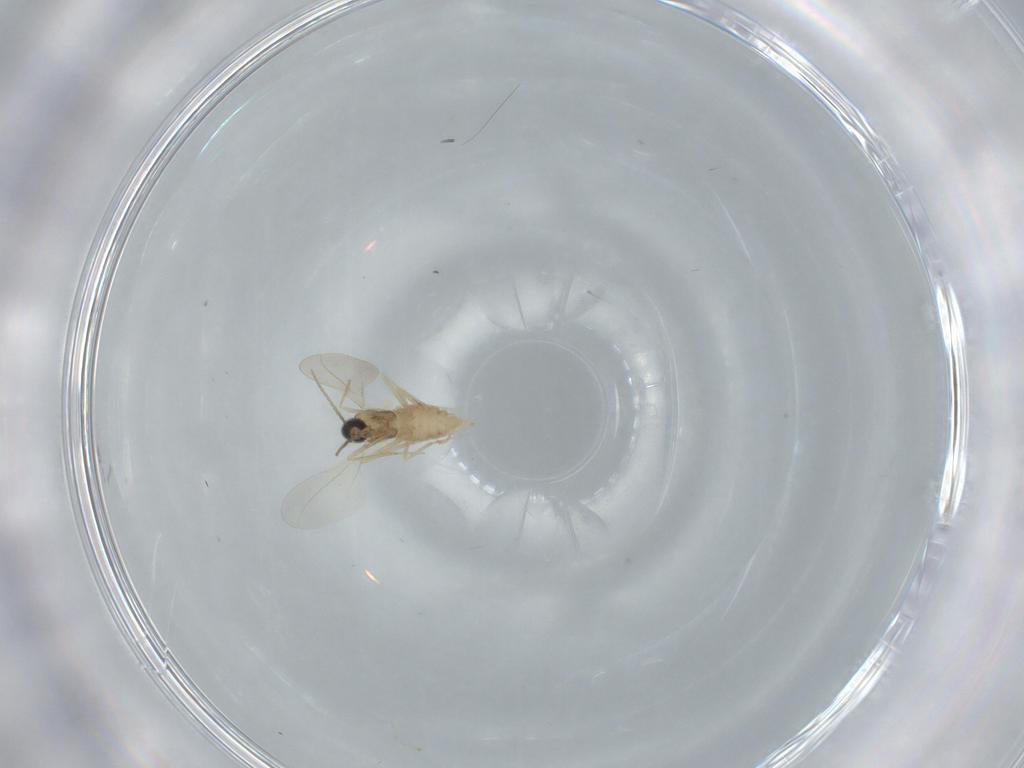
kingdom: Animalia
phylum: Arthropoda
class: Insecta
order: Diptera
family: Cecidomyiidae
